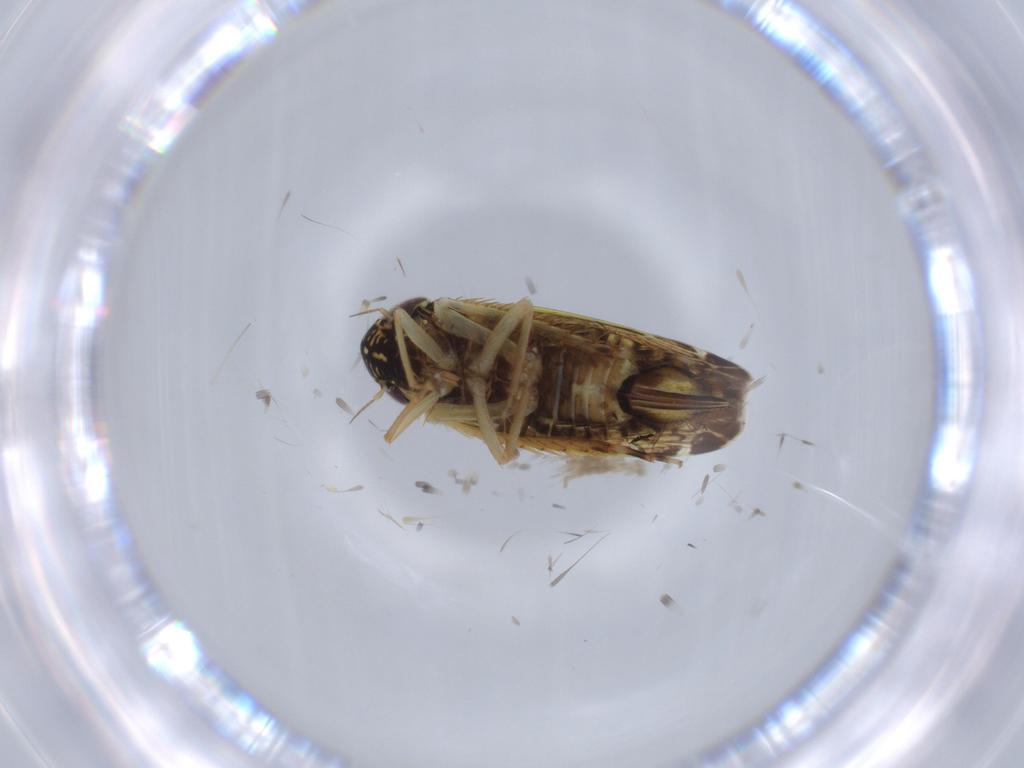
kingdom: Animalia
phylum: Arthropoda
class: Insecta
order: Hemiptera
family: Cicadellidae
